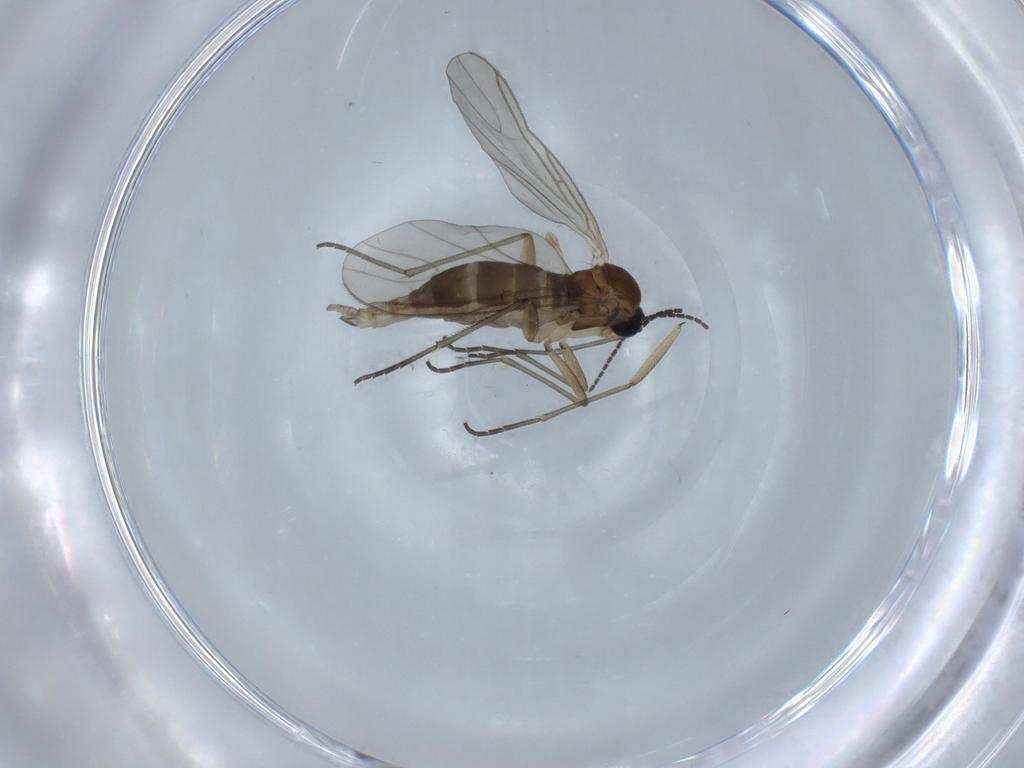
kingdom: Animalia
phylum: Arthropoda
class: Insecta
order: Diptera
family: Sciaridae
